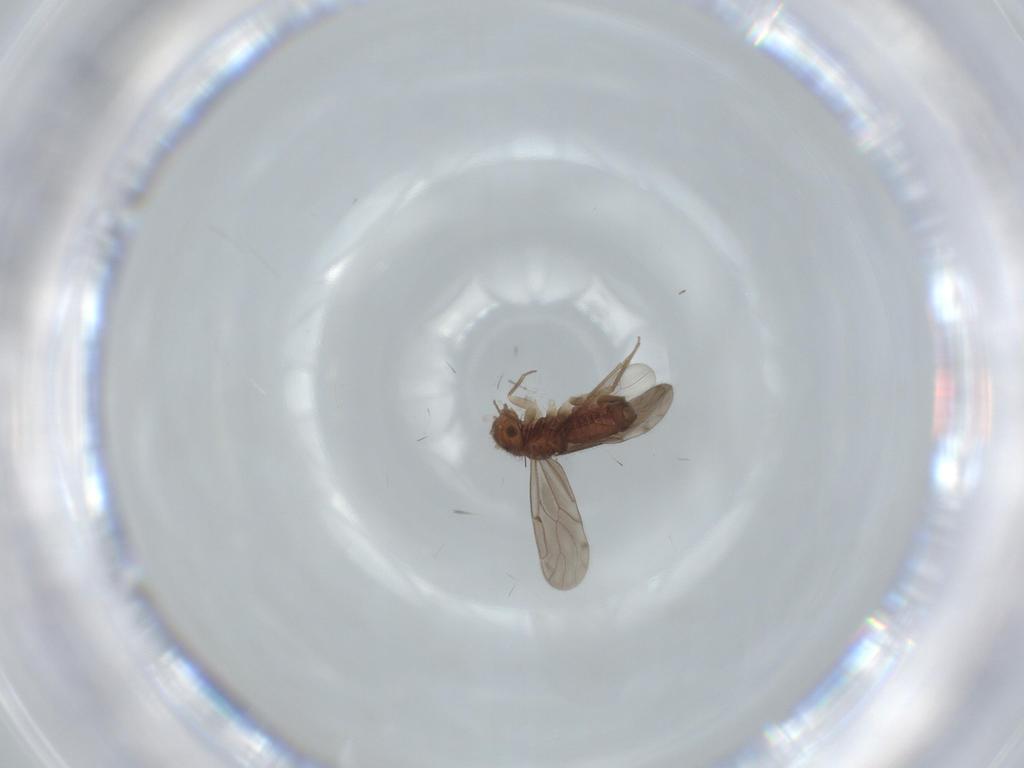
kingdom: Animalia
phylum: Arthropoda
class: Insecta
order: Psocodea
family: Ectopsocidae
